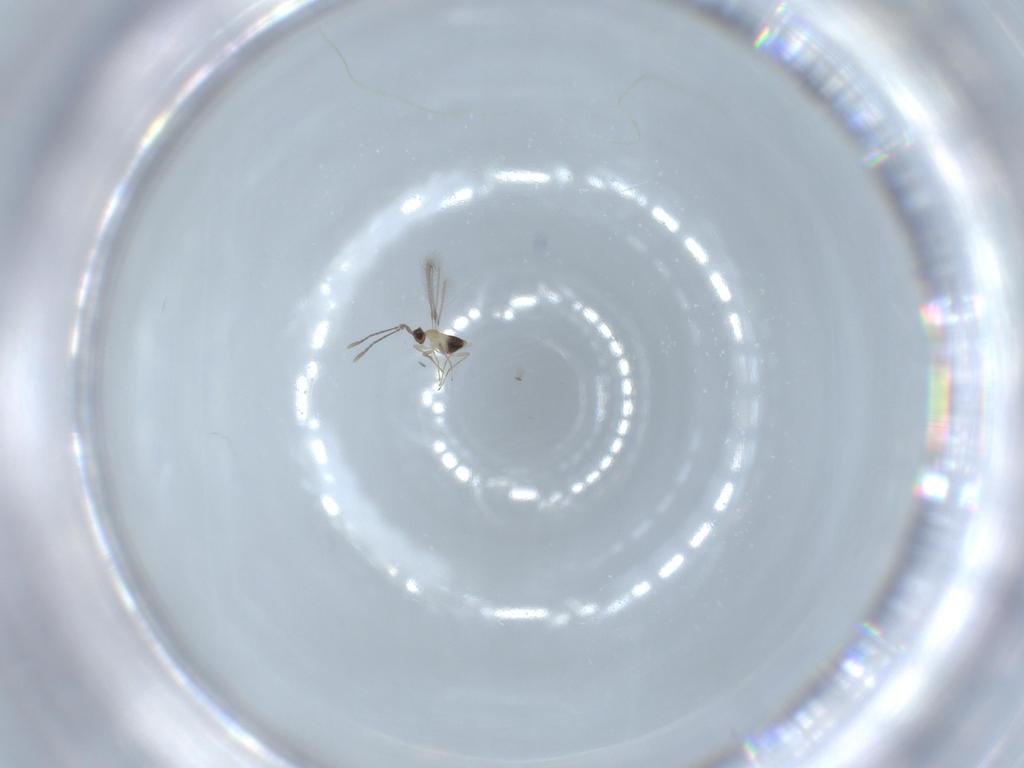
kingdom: Animalia
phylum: Arthropoda
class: Insecta
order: Hymenoptera
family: Mymaridae
